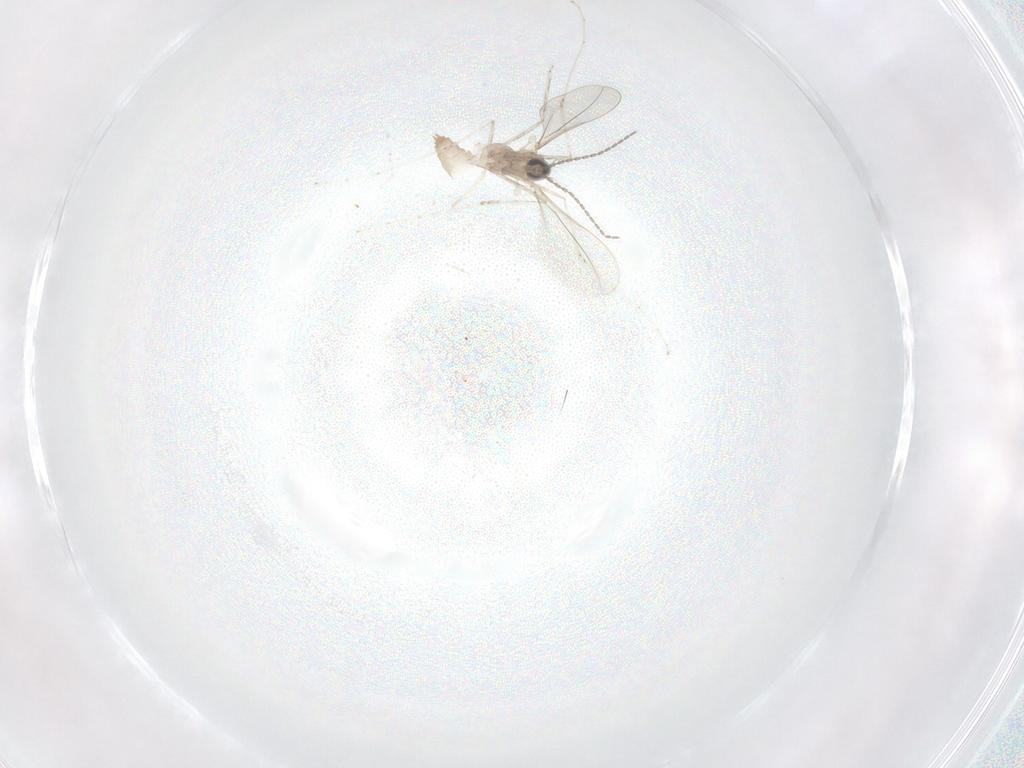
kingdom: Animalia
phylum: Arthropoda
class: Insecta
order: Diptera
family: Cecidomyiidae
